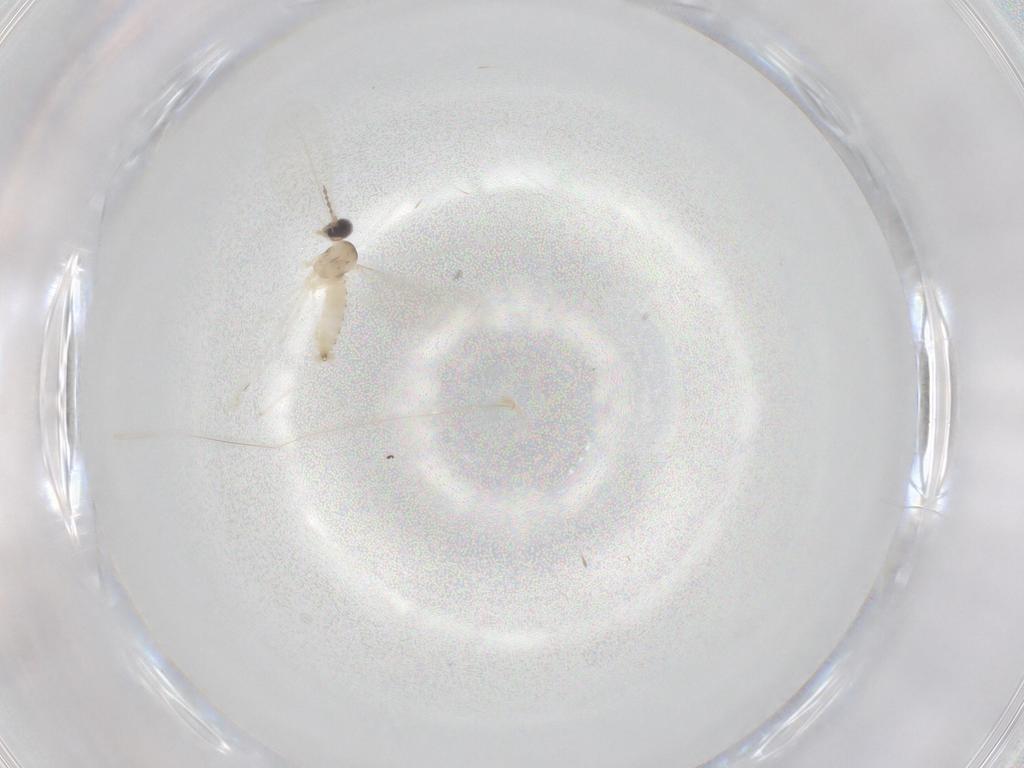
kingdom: Animalia
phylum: Arthropoda
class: Insecta
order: Diptera
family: Cecidomyiidae
